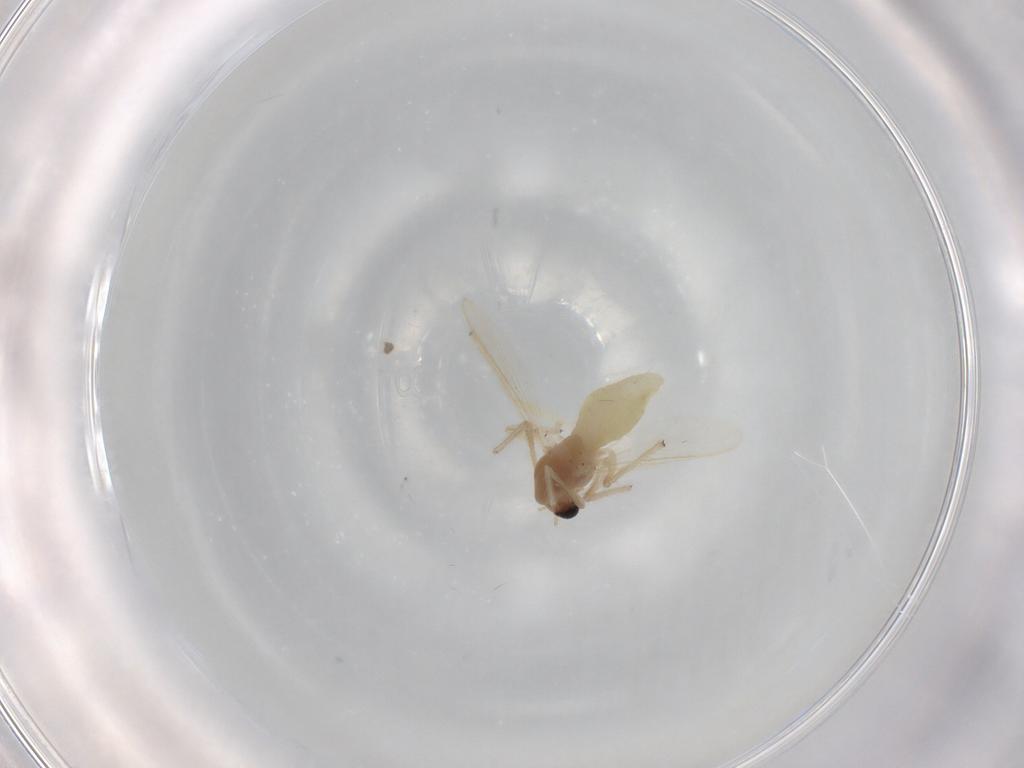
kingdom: Animalia
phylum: Arthropoda
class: Insecta
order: Diptera
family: Chironomidae
